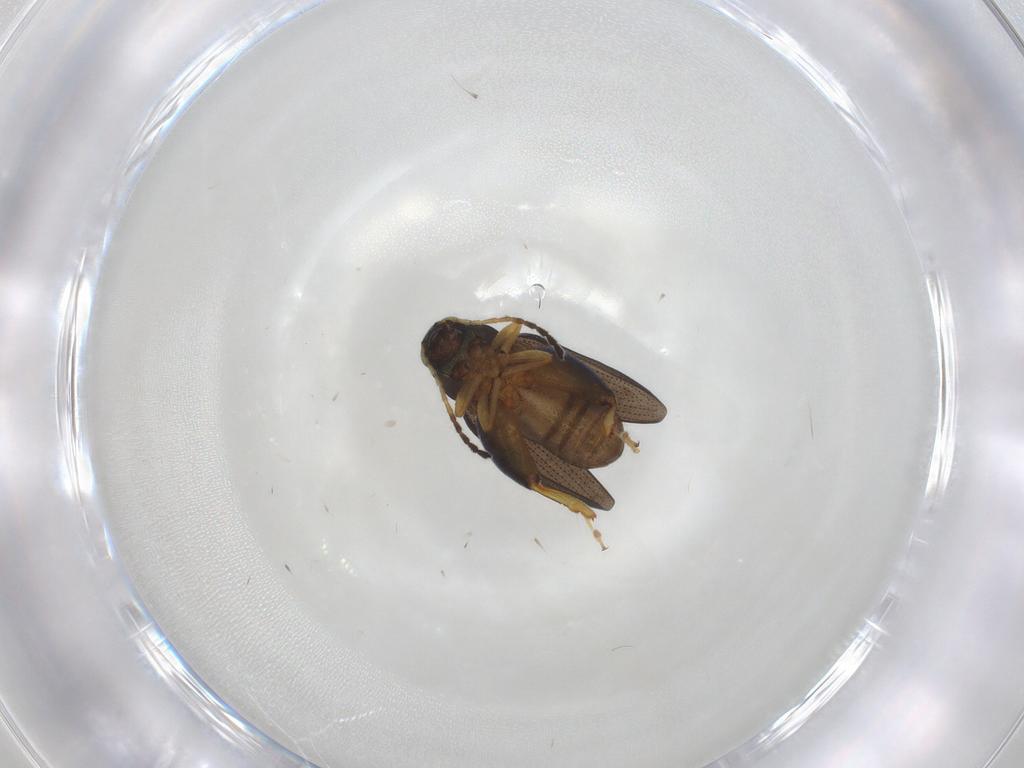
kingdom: Animalia
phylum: Arthropoda
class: Insecta
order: Coleoptera
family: Chrysomelidae
